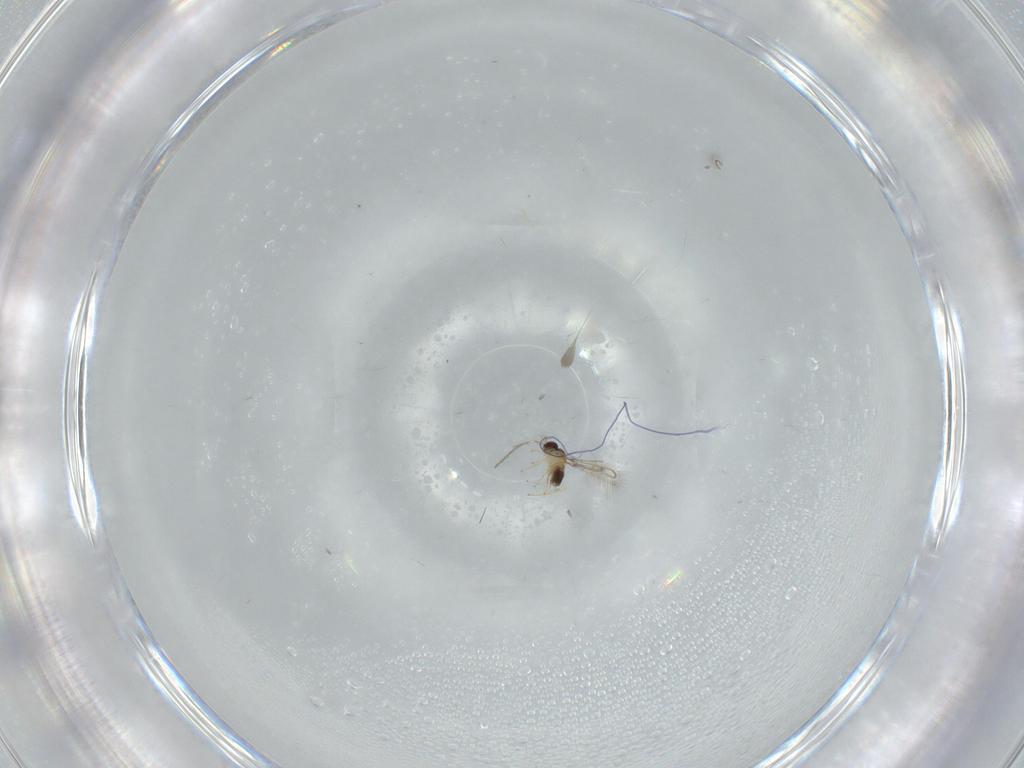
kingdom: Animalia
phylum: Arthropoda
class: Insecta
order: Hymenoptera
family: Mymaridae
